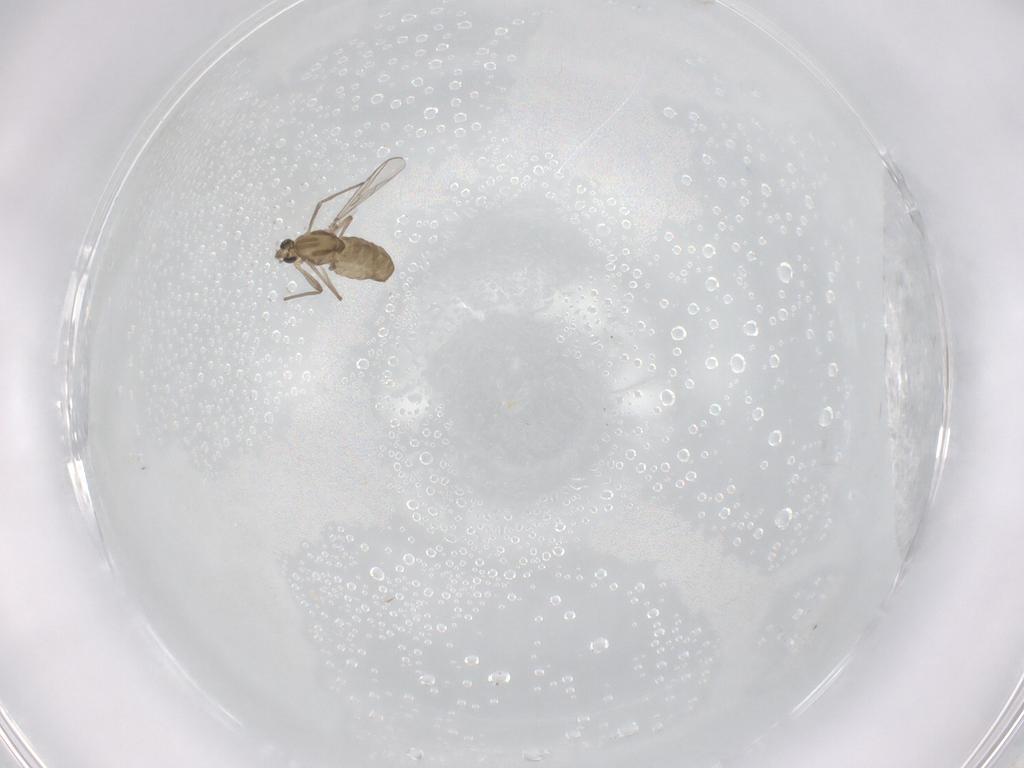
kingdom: Animalia
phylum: Arthropoda
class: Insecta
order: Diptera
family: Chironomidae
